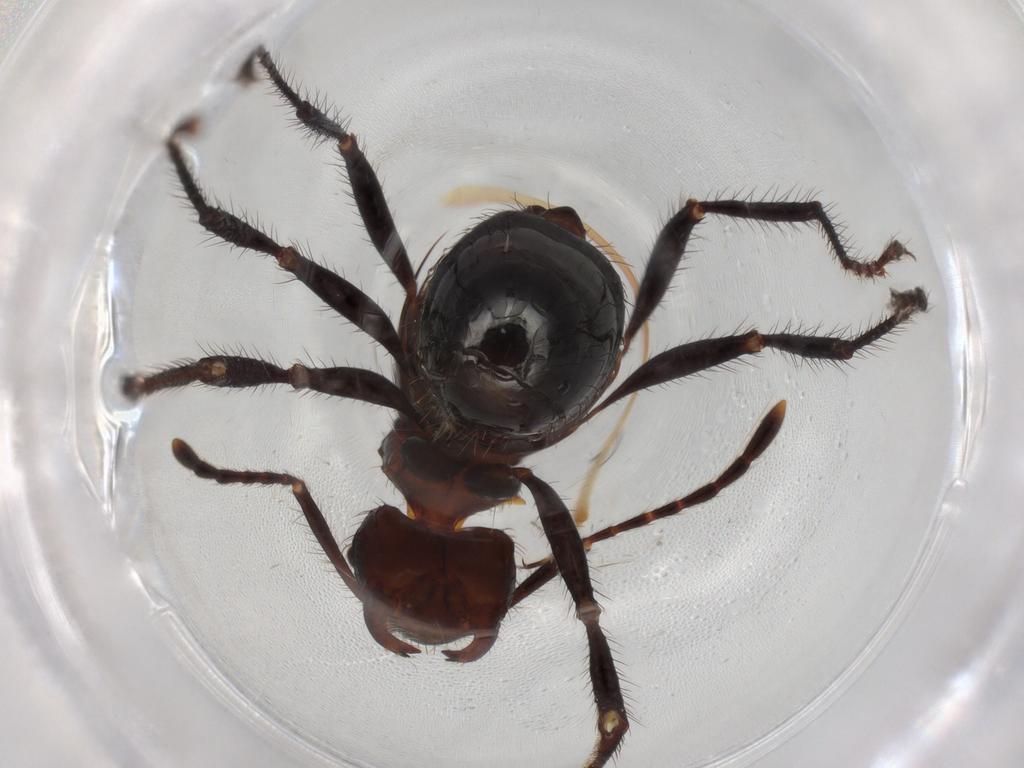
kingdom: Animalia
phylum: Arthropoda
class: Insecta
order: Hymenoptera
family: Formicidae
